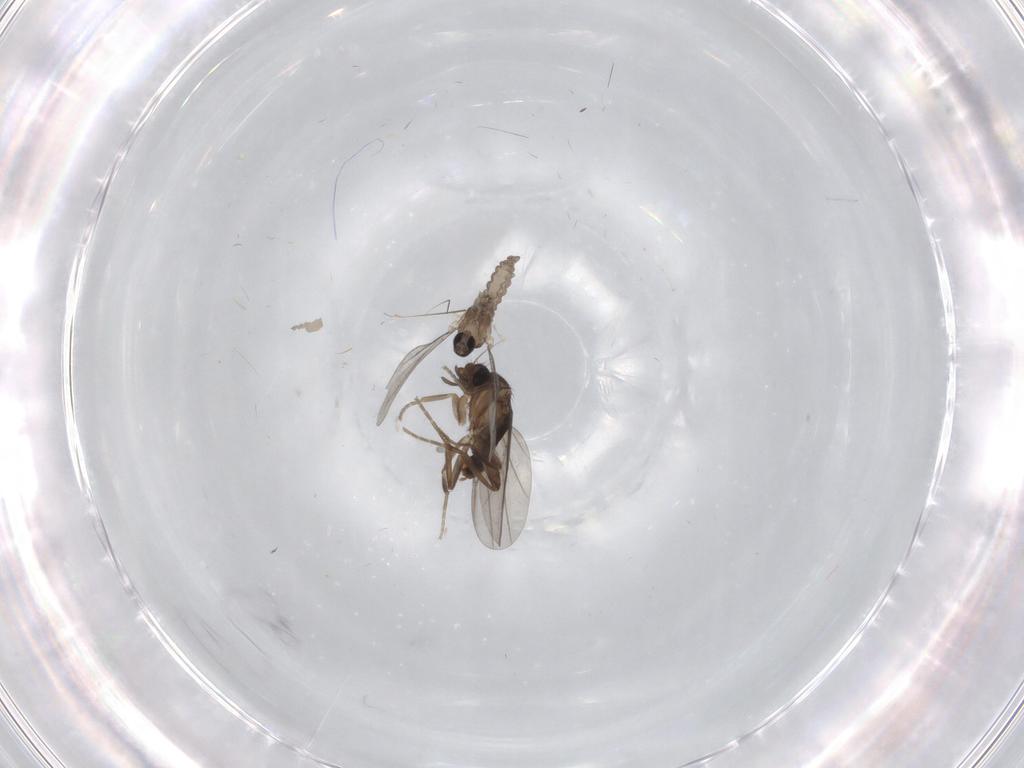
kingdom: Animalia
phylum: Arthropoda
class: Insecta
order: Diptera
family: Phoridae
